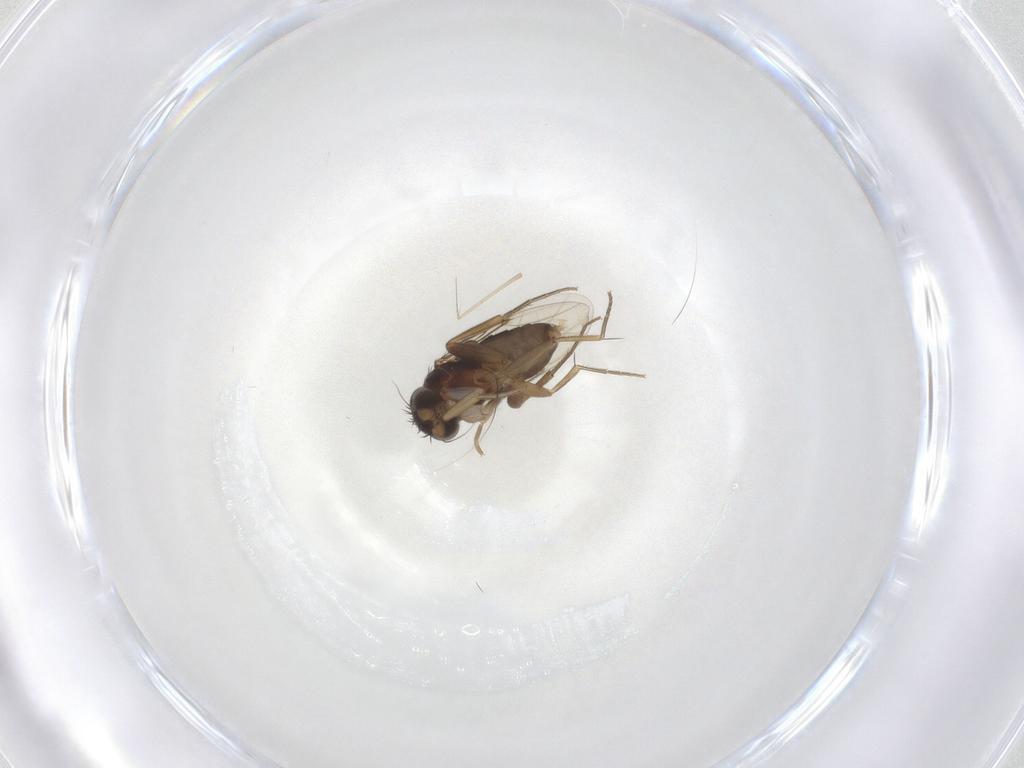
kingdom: Animalia
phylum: Arthropoda
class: Insecta
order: Diptera
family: Phoridae
